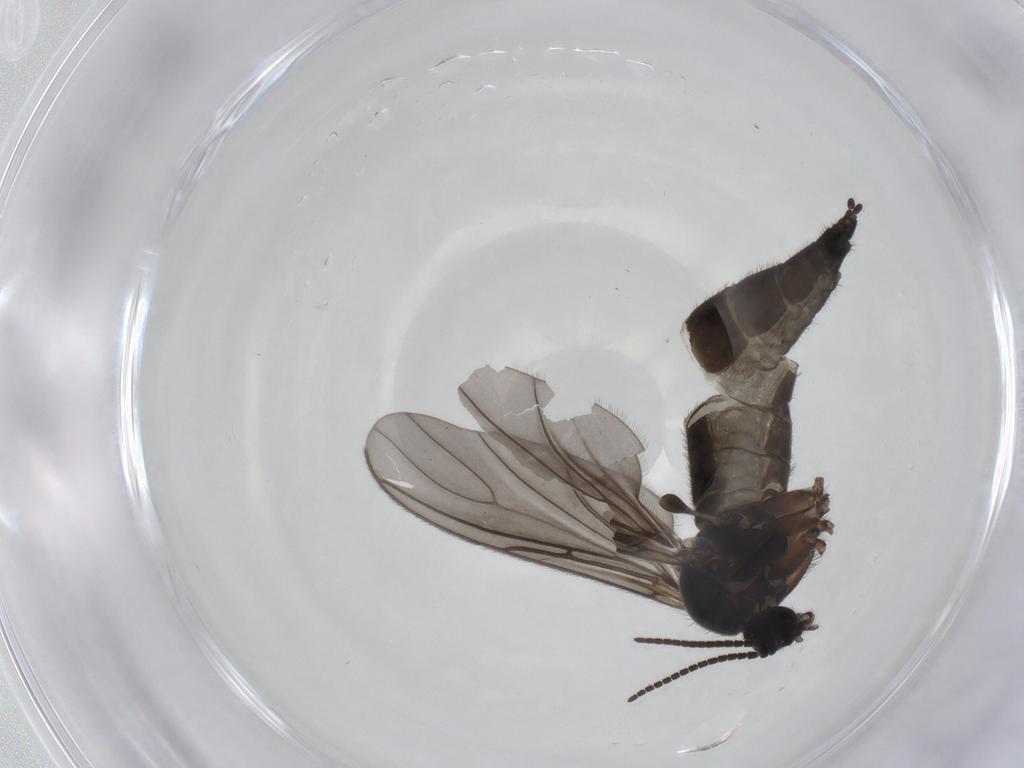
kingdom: Animalia
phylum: Arthropoda
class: Insecta
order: Diptera
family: Sciaridae
